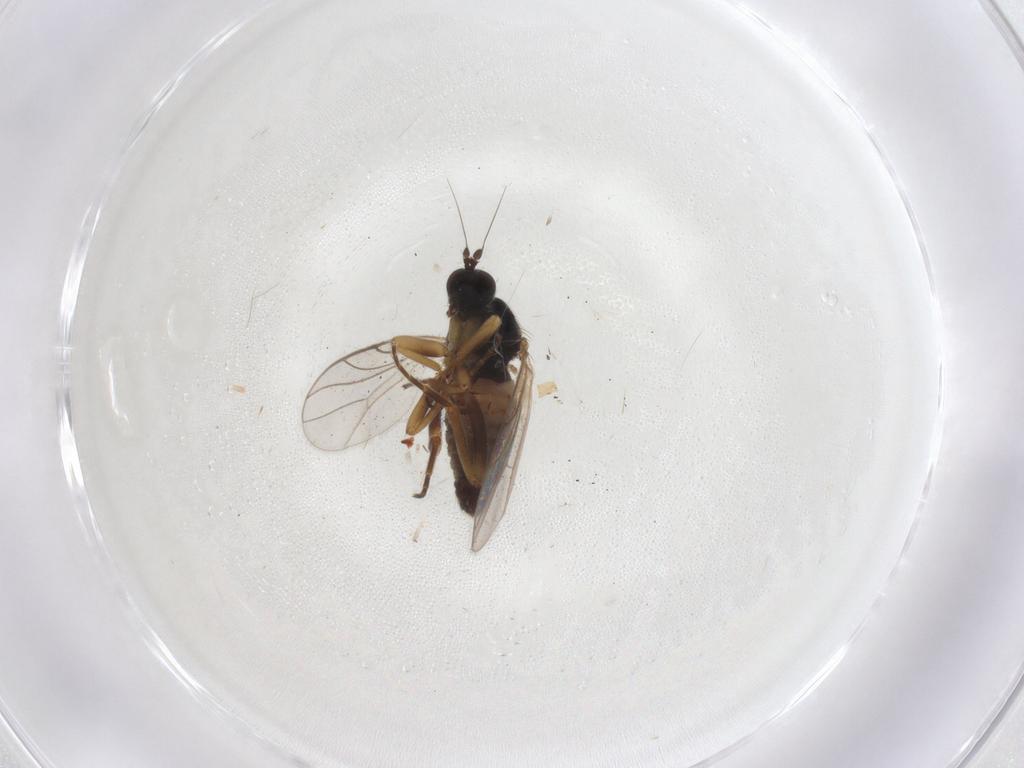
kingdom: Animalia
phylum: Arthropoda
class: Insecta
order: Diptera
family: Hybotidae
